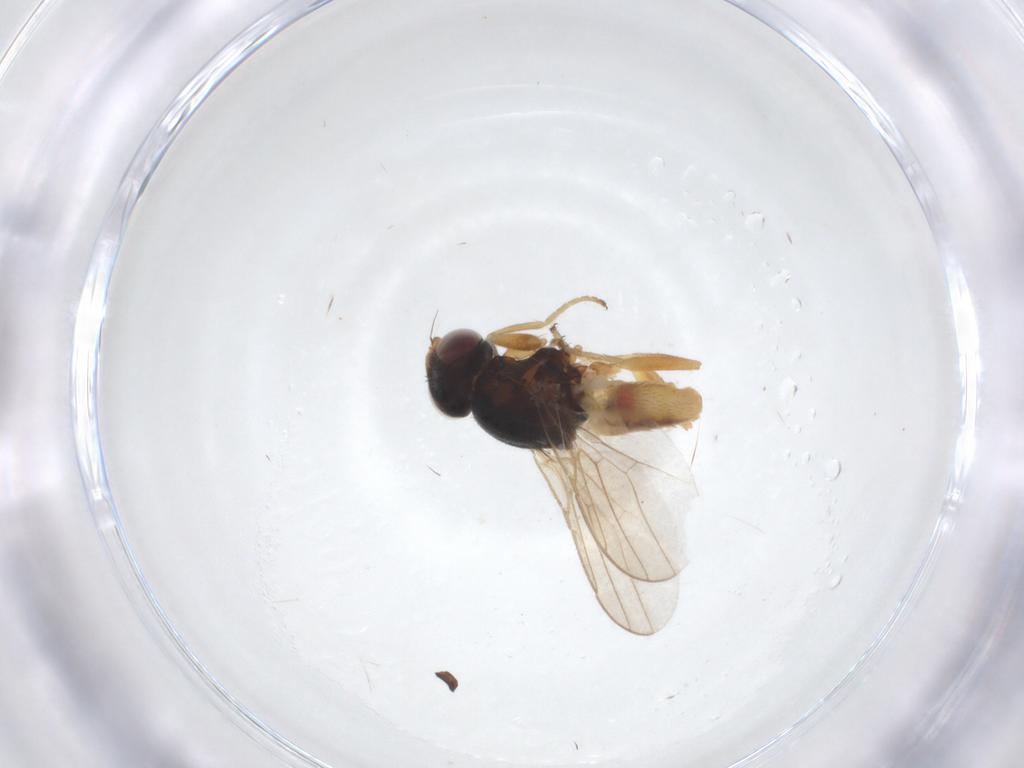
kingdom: Animalia
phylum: Arthropoda
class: Insecta
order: Diptera
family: Chloropidae
